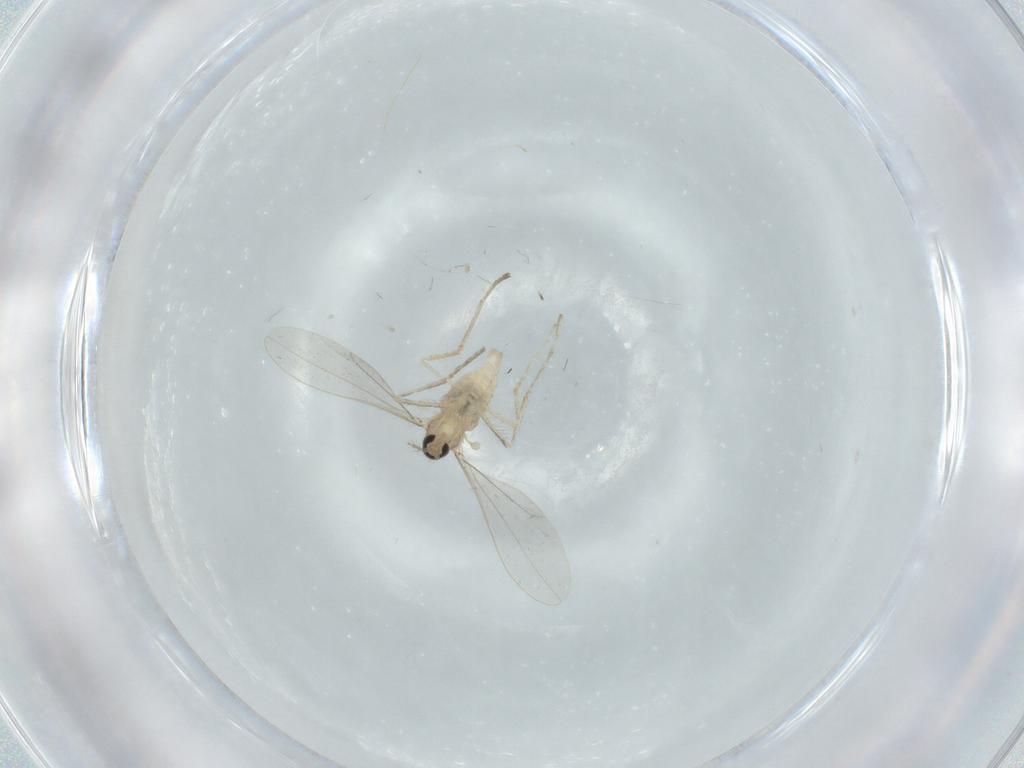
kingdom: Animalia
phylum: Arthropoda
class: Insecta
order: Diptera
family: Cecidomyiidae
